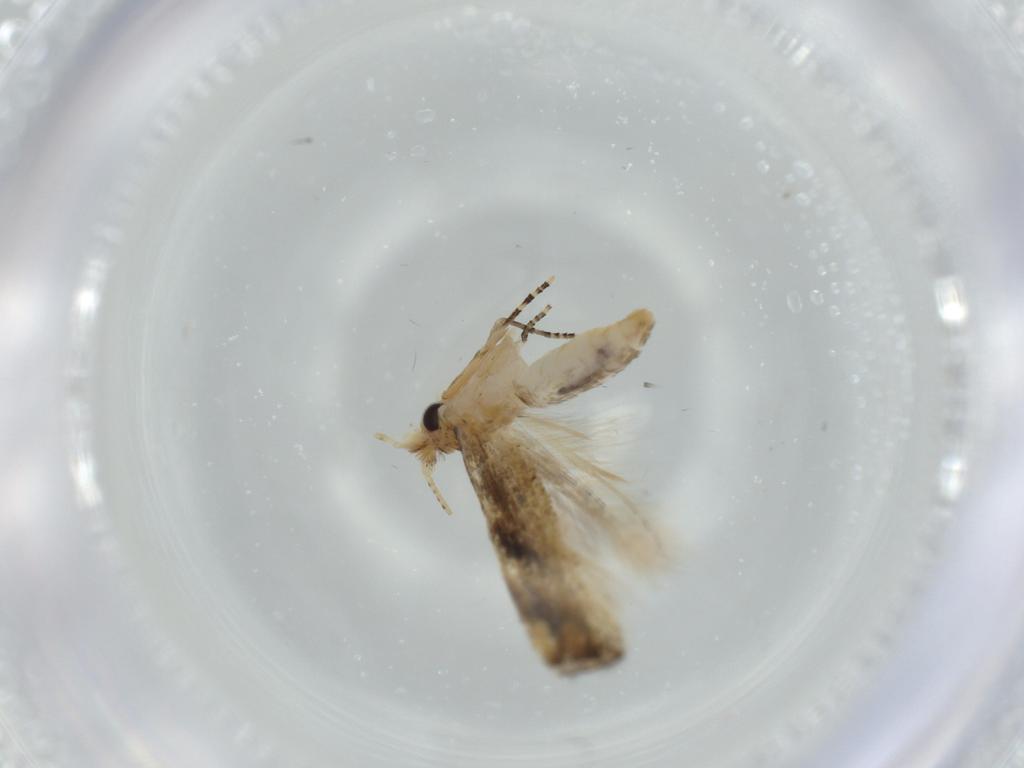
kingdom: Animalia
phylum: Arthropoda
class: Insecta
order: Lepidoptera
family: Bucculatricidae
